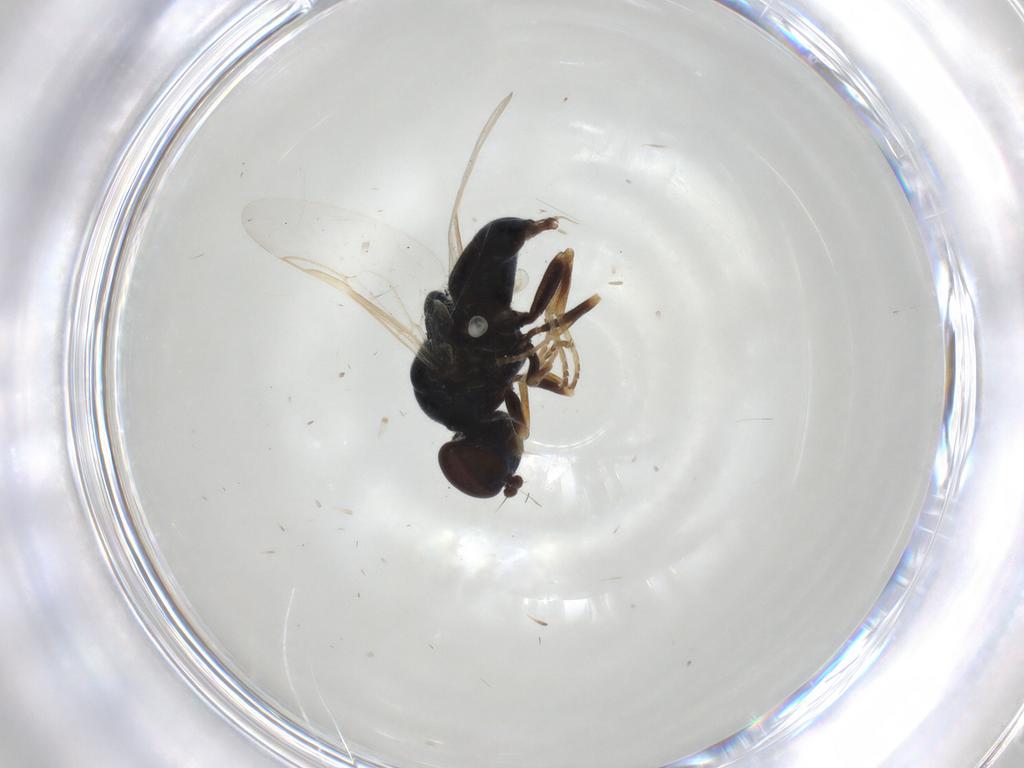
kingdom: Animalia
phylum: Arthropoda
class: Insecta
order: Diptera
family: Stratiomyidae
